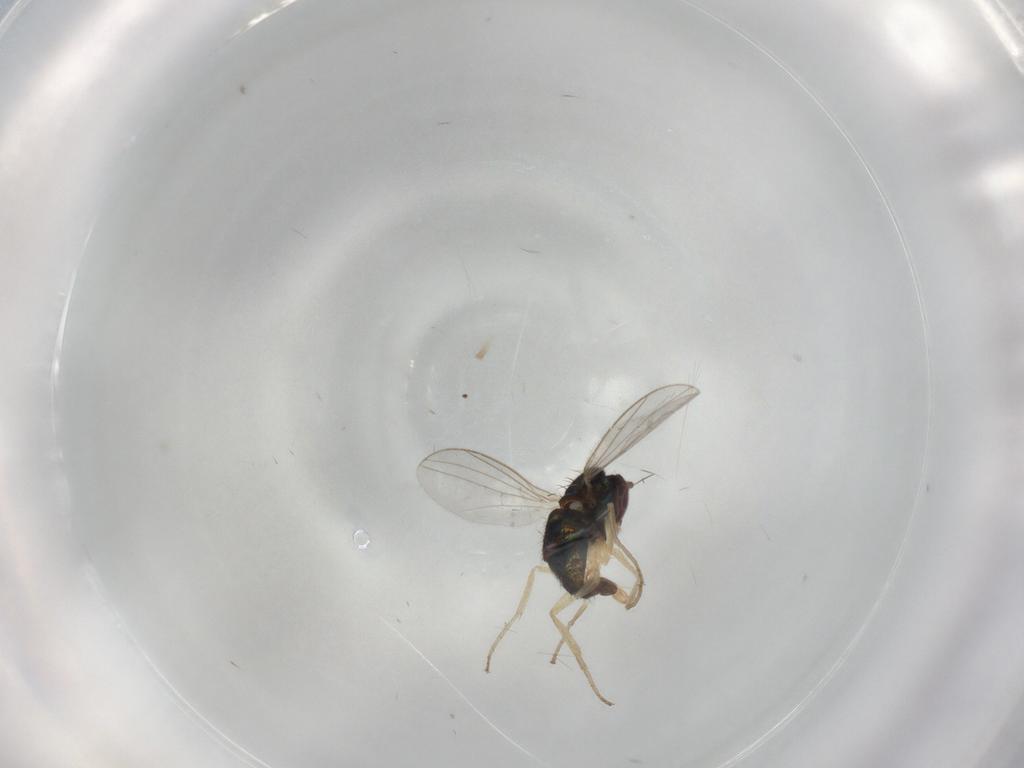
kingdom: Animalia
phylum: Arthropoda
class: Insecta
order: Diptera
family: Dolichopodidae
